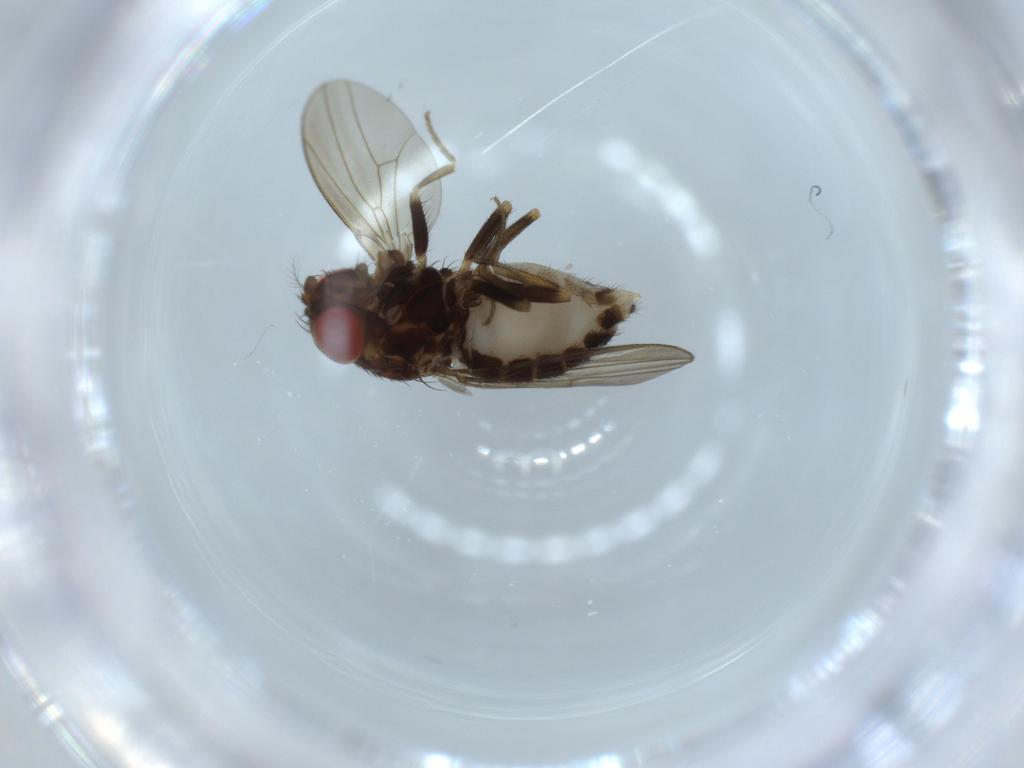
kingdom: Animalia
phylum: Arthropoda
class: Insecta
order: Diptera
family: Drosophilidae
